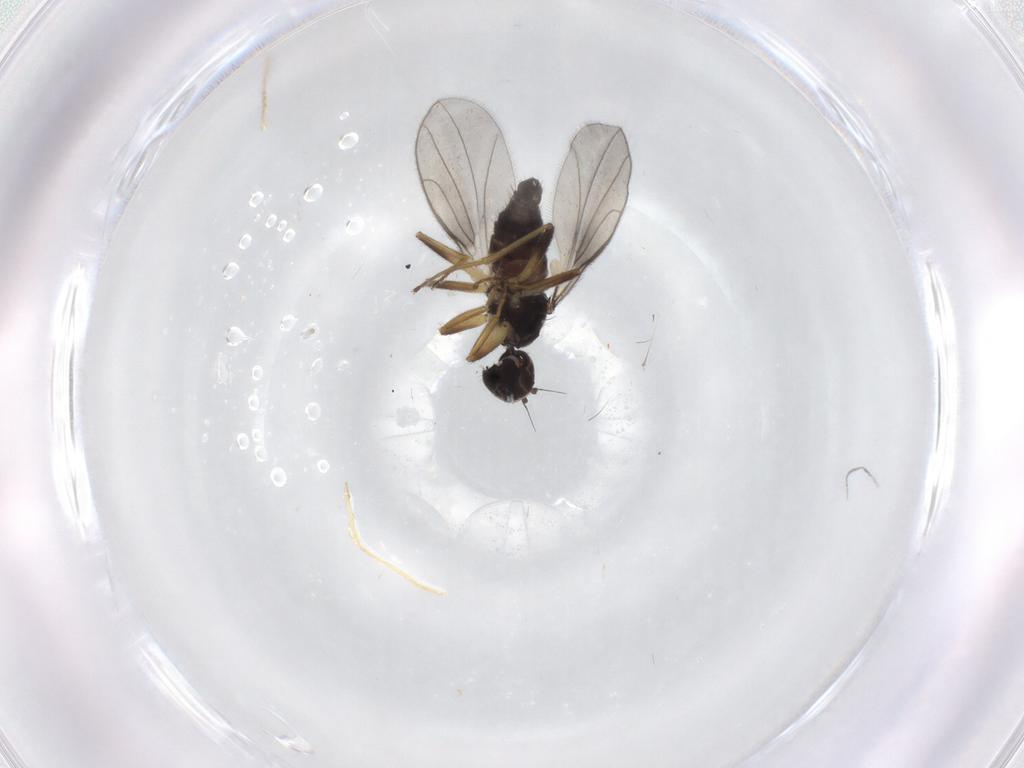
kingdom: Animalia
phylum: Arthropoda
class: Insecta
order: Diptera
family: Hybotidae
